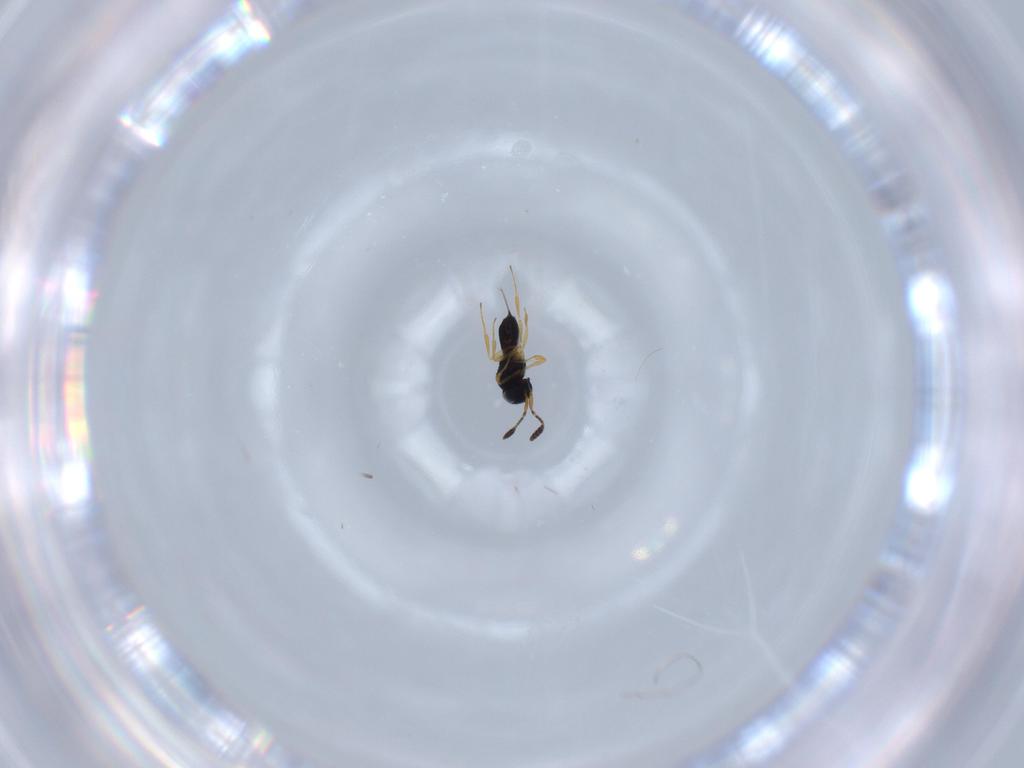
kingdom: Animalia
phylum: Arthropoda
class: Insecta
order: Hymenoptera
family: Scelionidae
